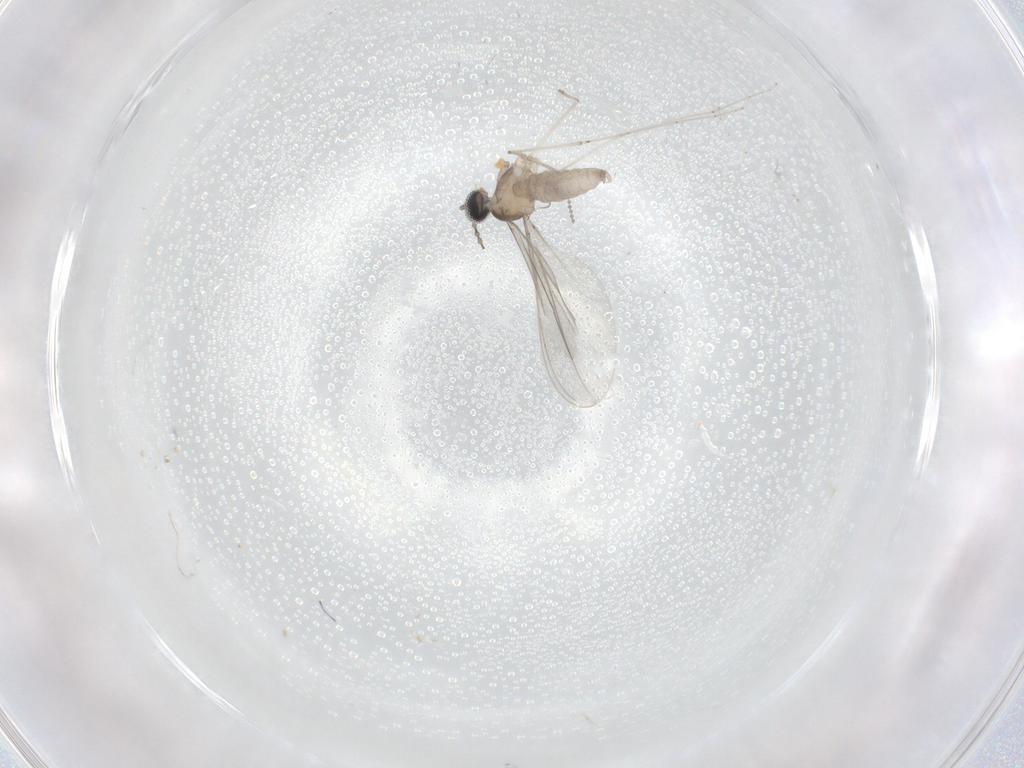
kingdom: Animalia
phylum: Arthropoda
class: Insecta
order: Diptera
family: Cecidomyiidae
